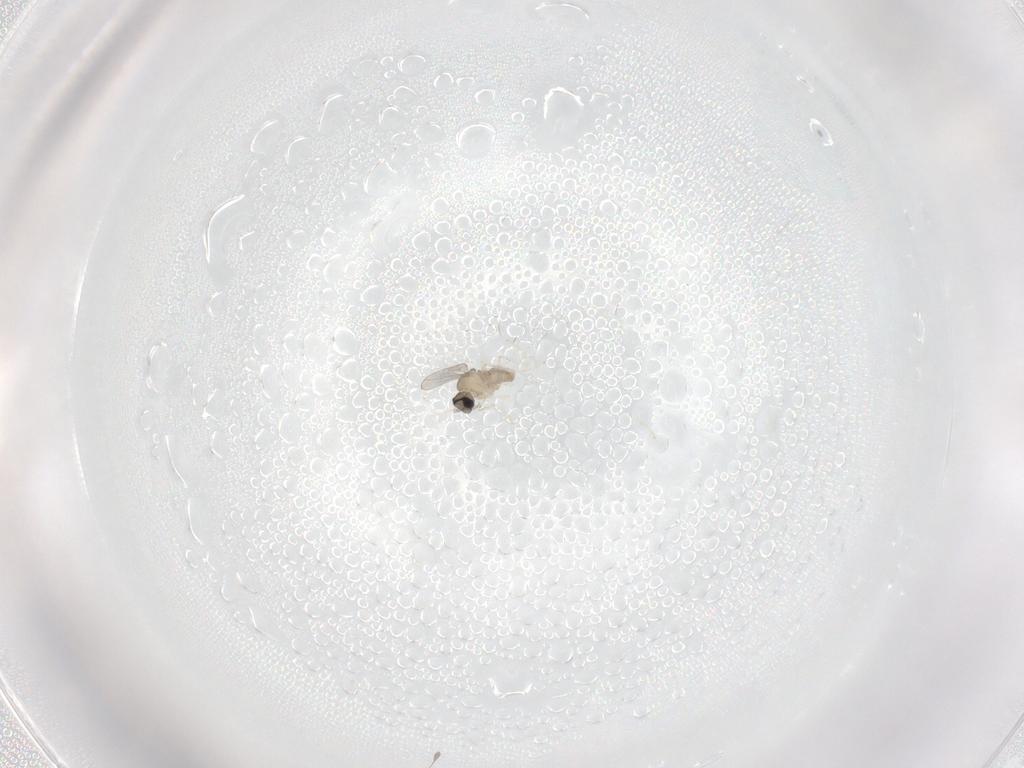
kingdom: Animalia
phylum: Arthropoda
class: Insecta
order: Diptera
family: Cecidomyiidae
